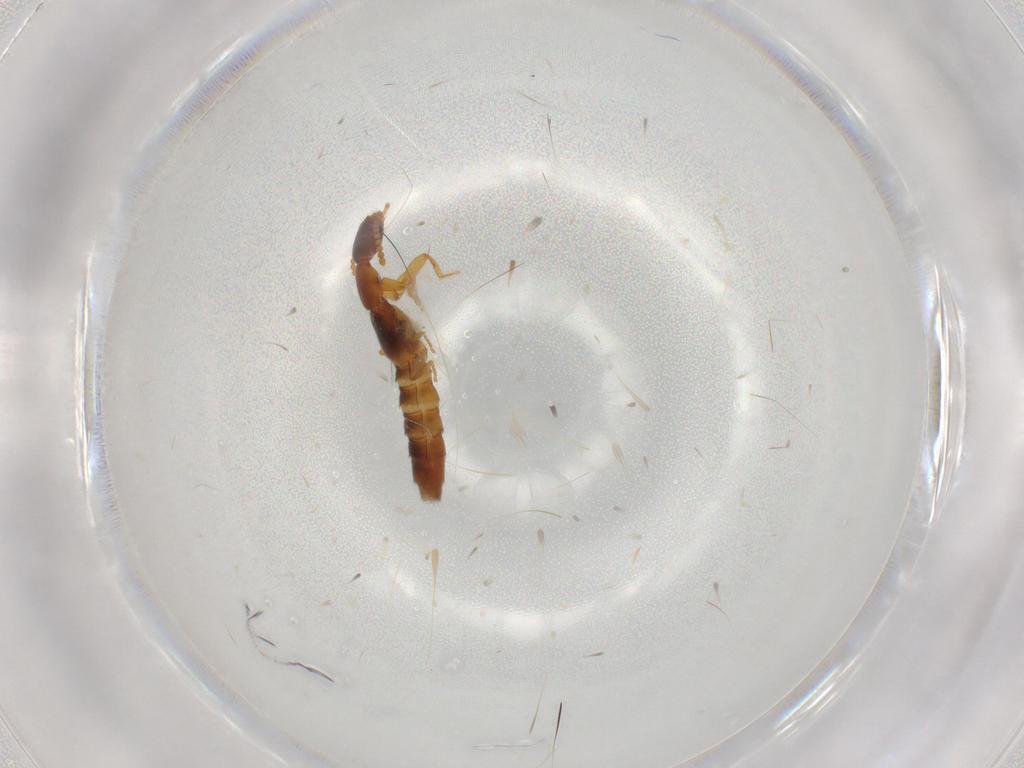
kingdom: Animalia
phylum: Arthropoda
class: Insecta
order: Coleoptera
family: Staphylinidae
